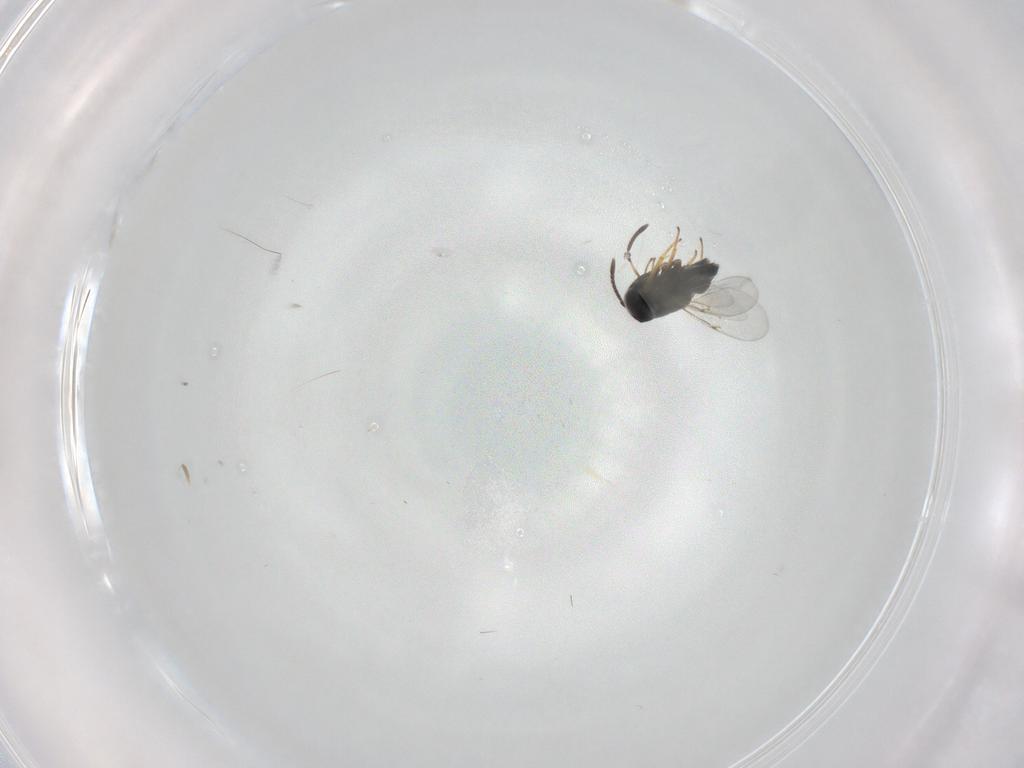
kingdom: Animalia
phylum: Arthropoda
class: Insecta
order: Hymenoptera
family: Encyrtidae
